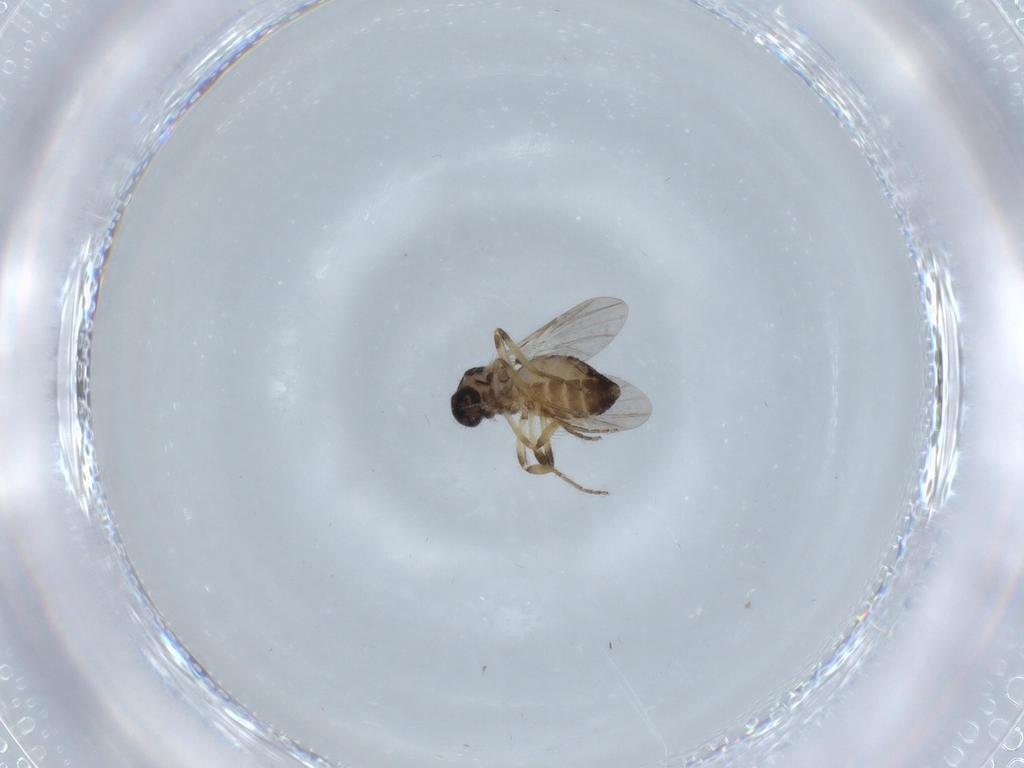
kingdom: Animalia
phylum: Arthropoda
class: Insecta
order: Diptera
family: Ceratopogonidae
